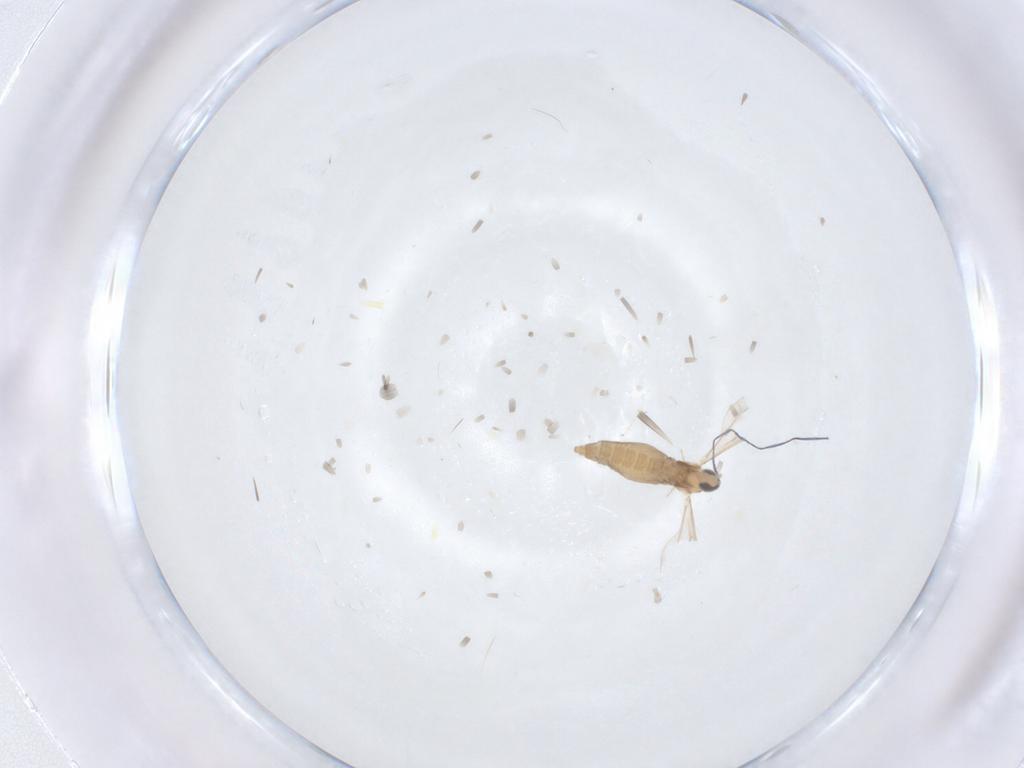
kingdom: Animalia
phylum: Arthropoda
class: Insecta
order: Diptera
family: Cecidomyiidae
